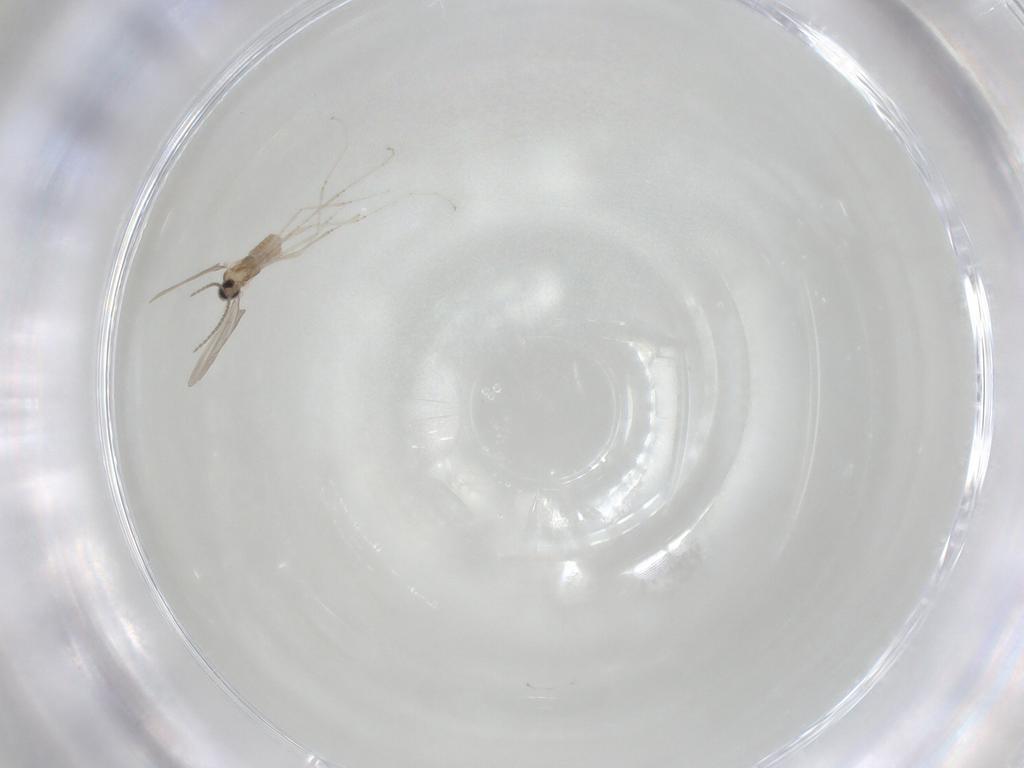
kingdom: Animalia
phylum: Arthropoda
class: Insecta
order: Diptera
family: Cecidomyiidae
